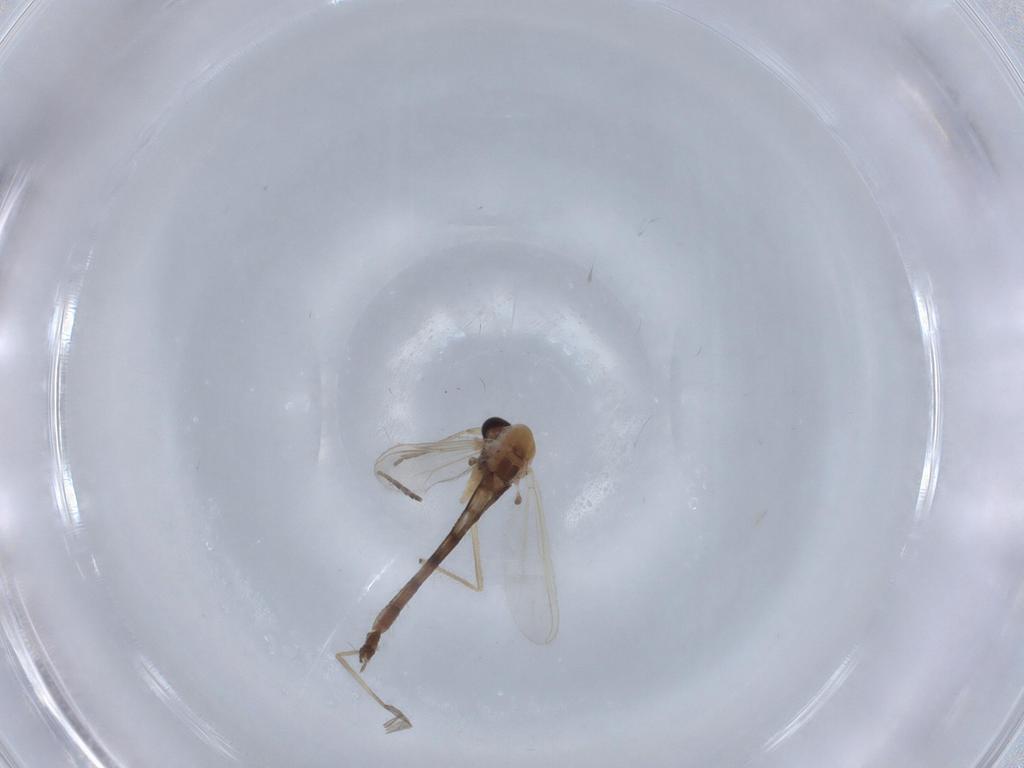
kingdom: Animalia
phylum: Arthropoda
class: Insecta
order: Diptera
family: Chironomidae
